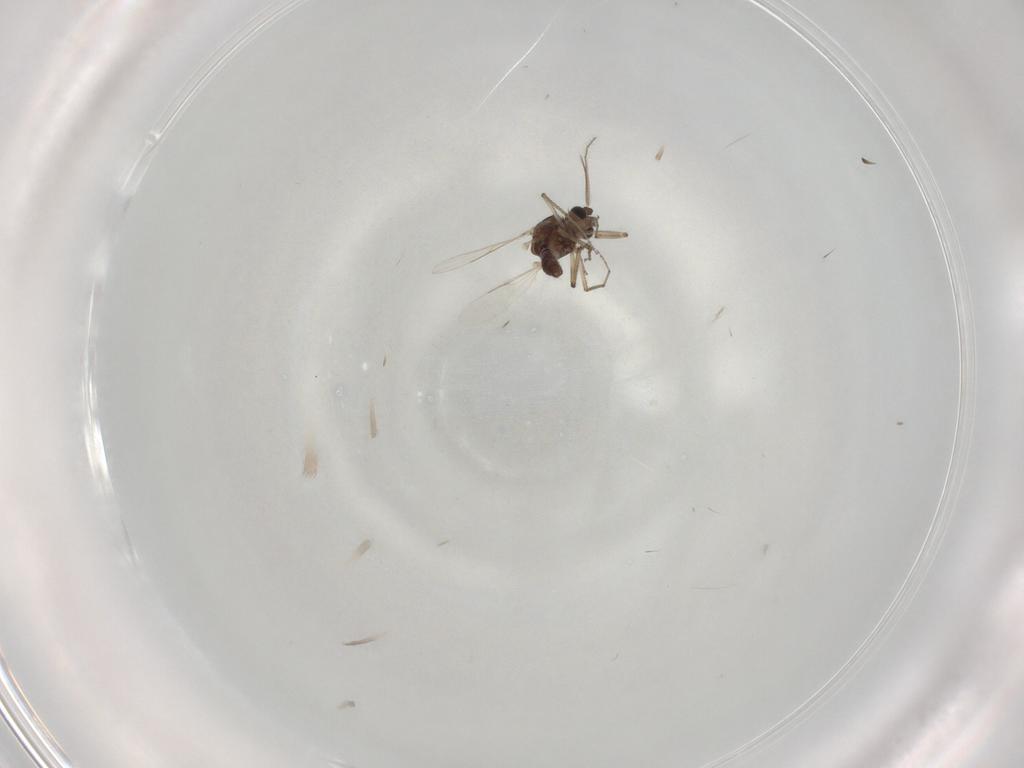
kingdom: Animalia
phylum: Arthropoda
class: Insecta
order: Diptera
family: Ceratopogonidae
